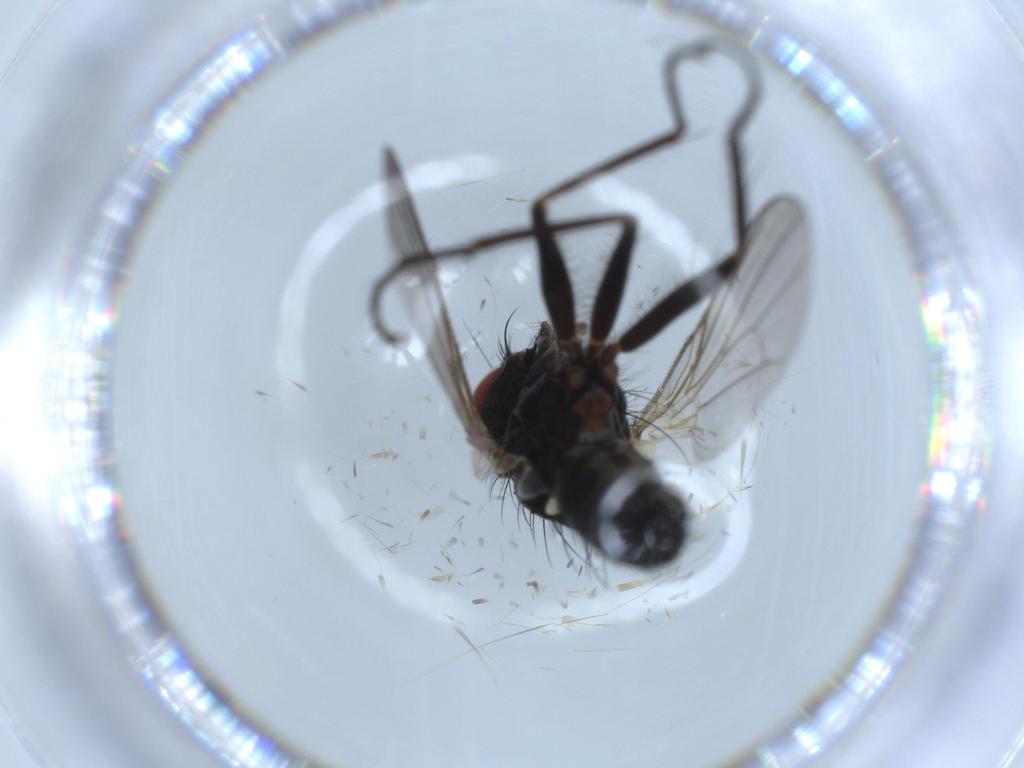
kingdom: Animalia
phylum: Arthropoda
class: Insecta
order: Diptera
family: Muscidae
